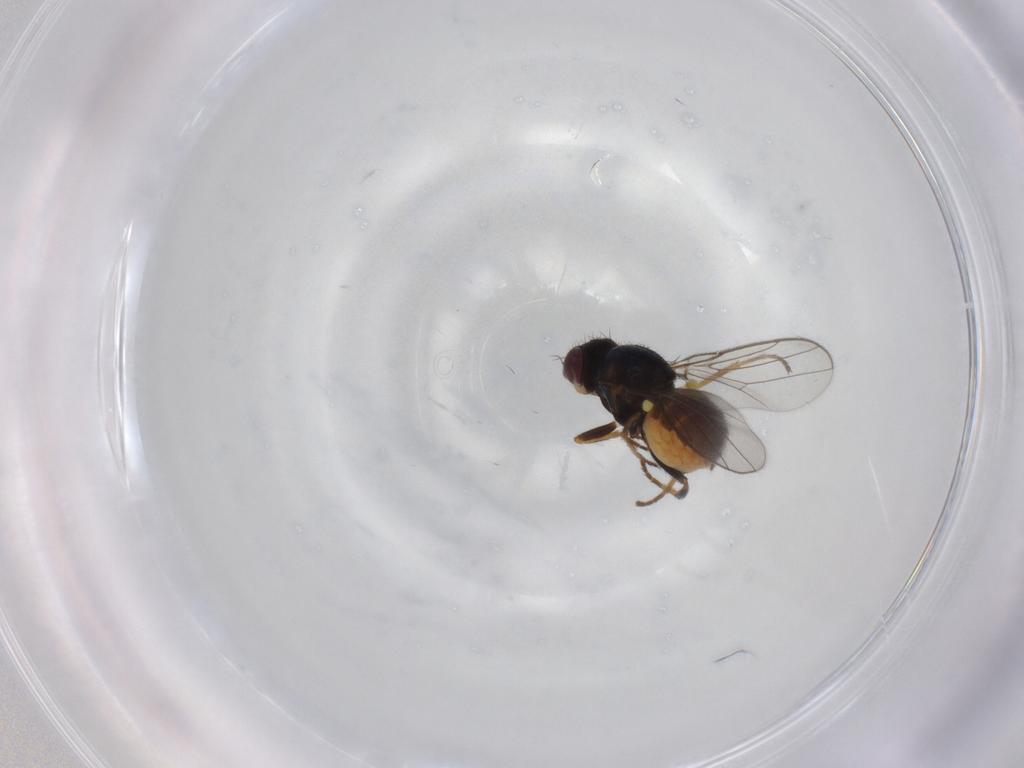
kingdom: Animalia
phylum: Arthropoda
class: Insecta
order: Diptera
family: Chloropidae
